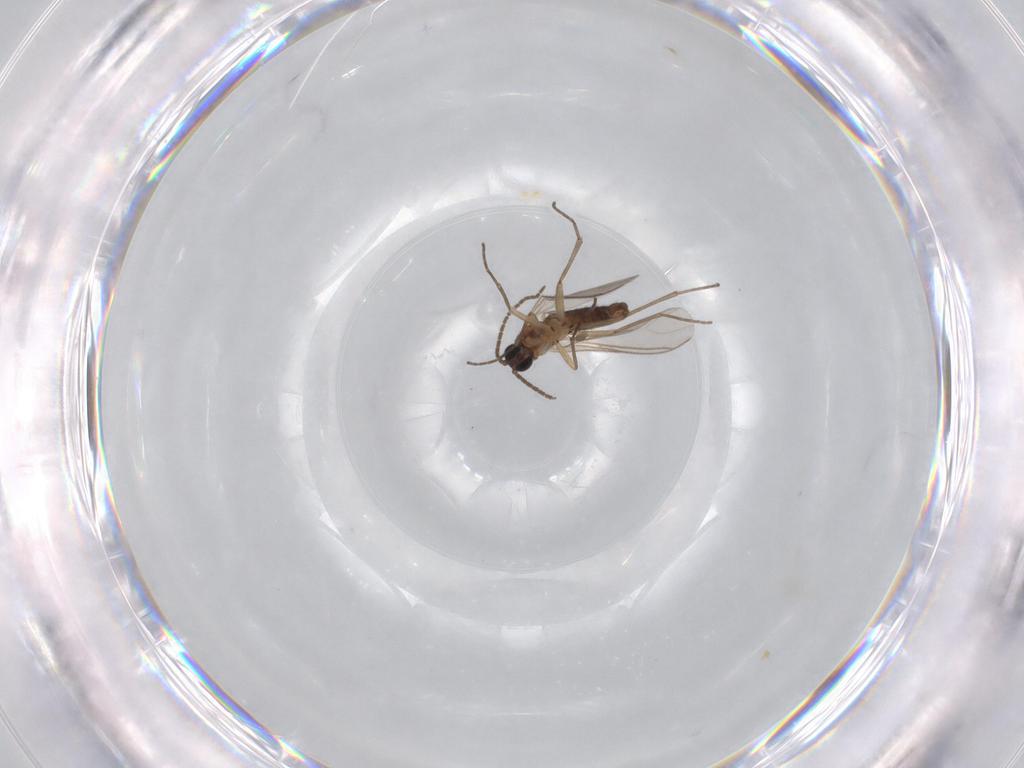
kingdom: Animalia
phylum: Arthropoda
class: Insecta
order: Diptera
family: Sciaridae
